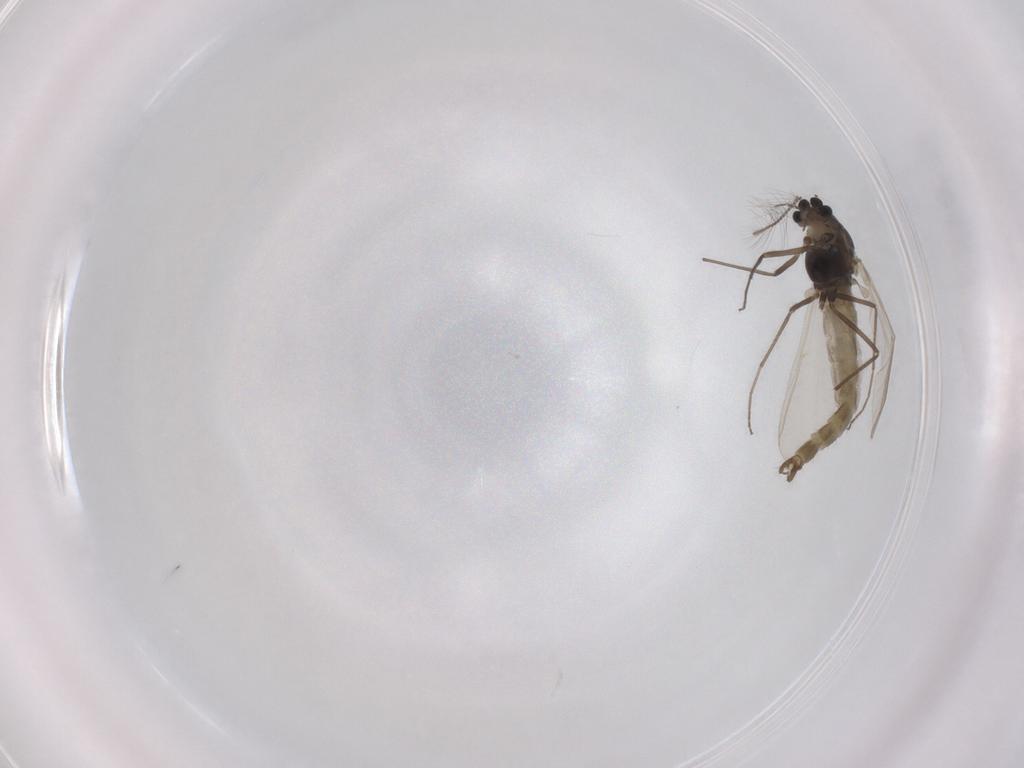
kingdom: Animalia
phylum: Arthropoda
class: Insecta
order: Diptera
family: Chironomidae
